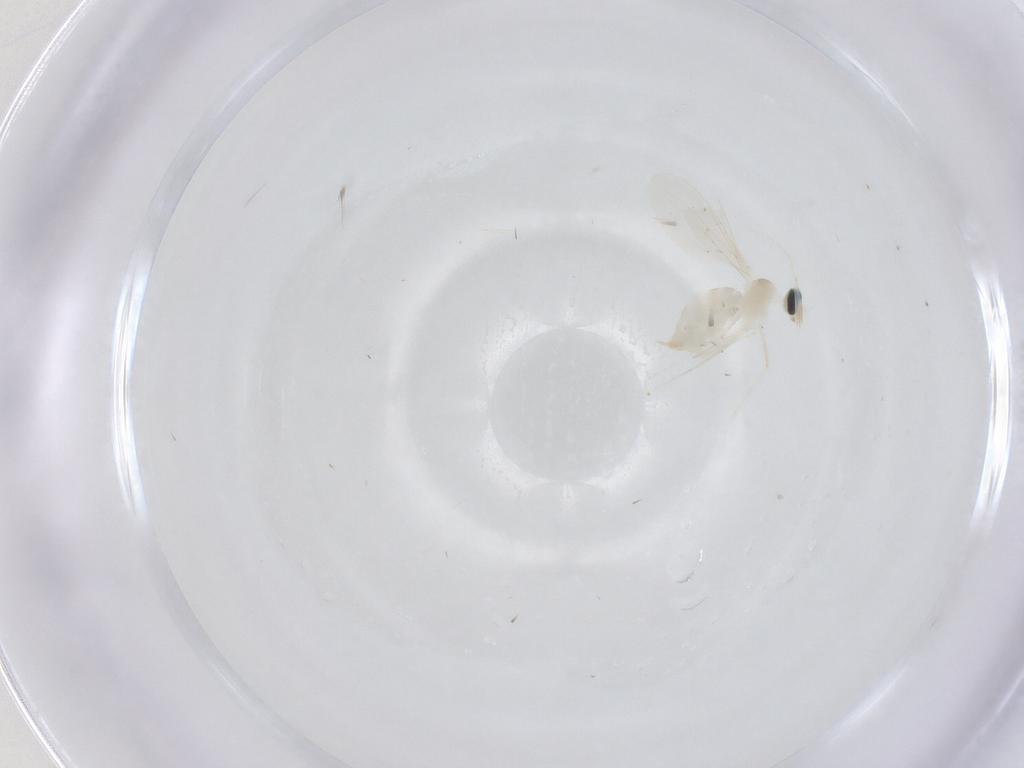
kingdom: Animalia
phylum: Arthropoda
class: Insecta
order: Diptera
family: Cecidomyiidae
